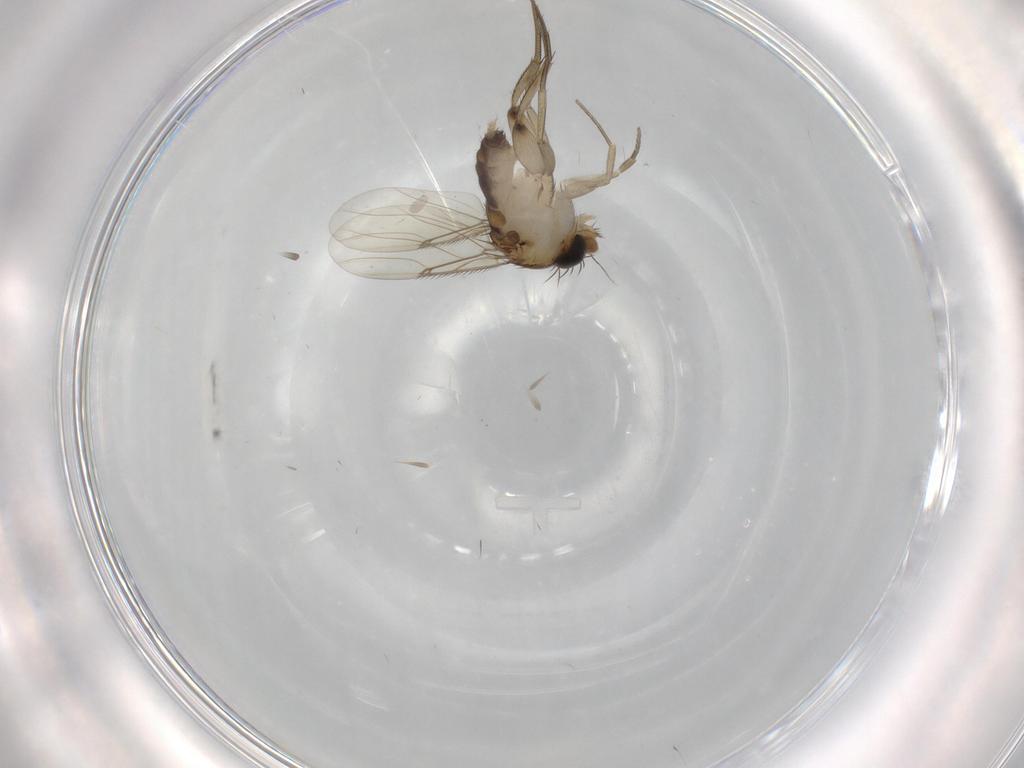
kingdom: Animalia
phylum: Arthropoda
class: Insecta
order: Diptera
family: Phoridae
